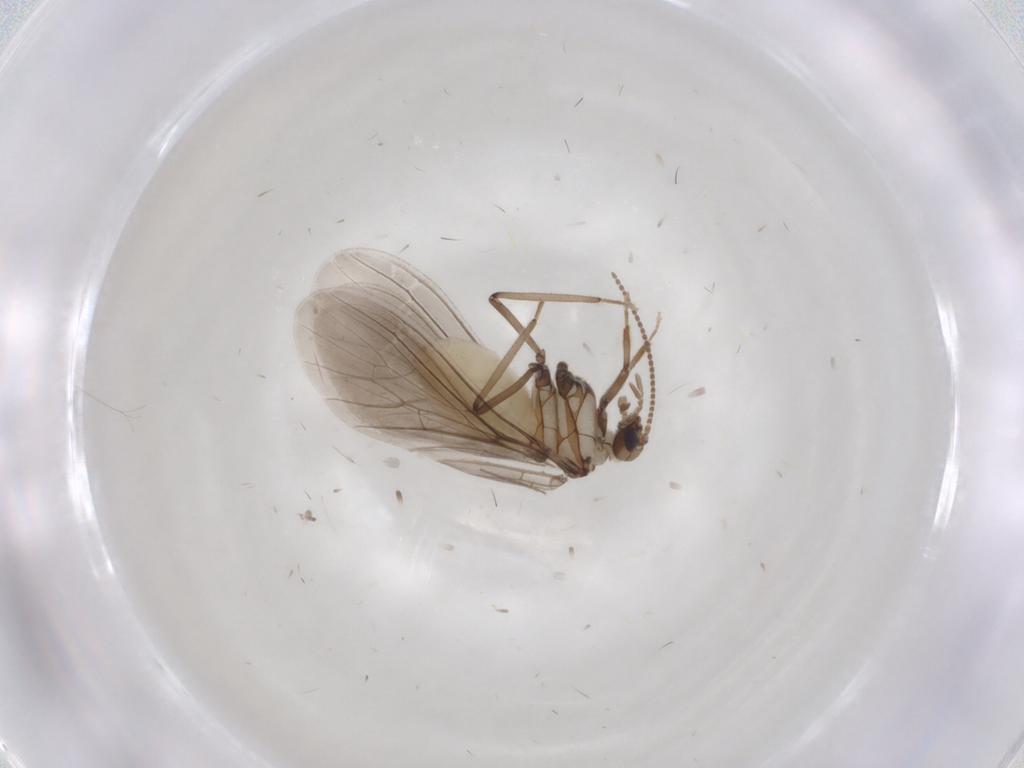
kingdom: Animalia
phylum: Arthropoda
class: Insecta
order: Neuroptera
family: Coniopterygidae
